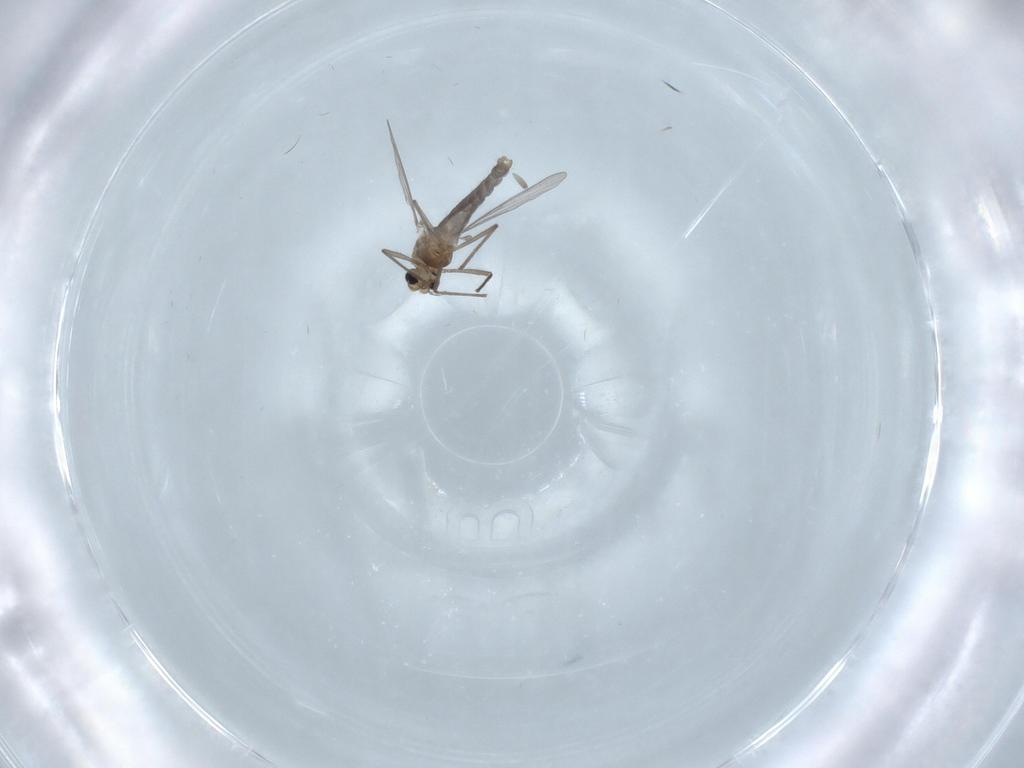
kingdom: Animalia
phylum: Arthropoda
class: Insecta
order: Diptera
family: Chironomidae
